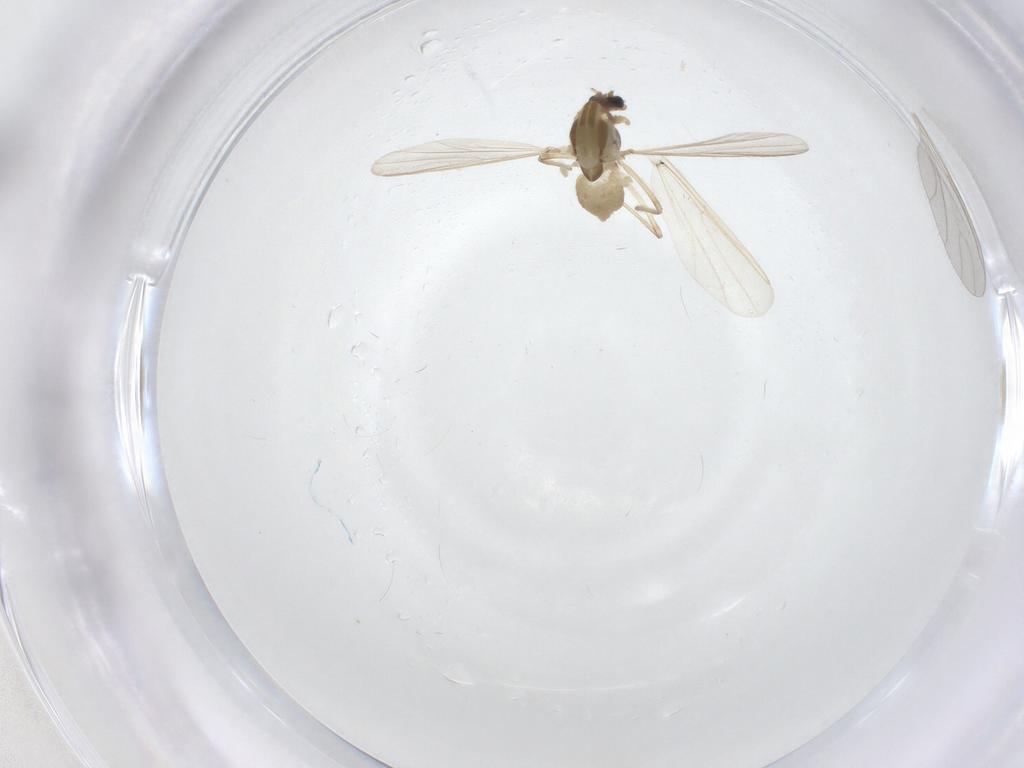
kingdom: Animalia
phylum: Arthropoda
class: Insecta
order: Diptera
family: Chironomidae
